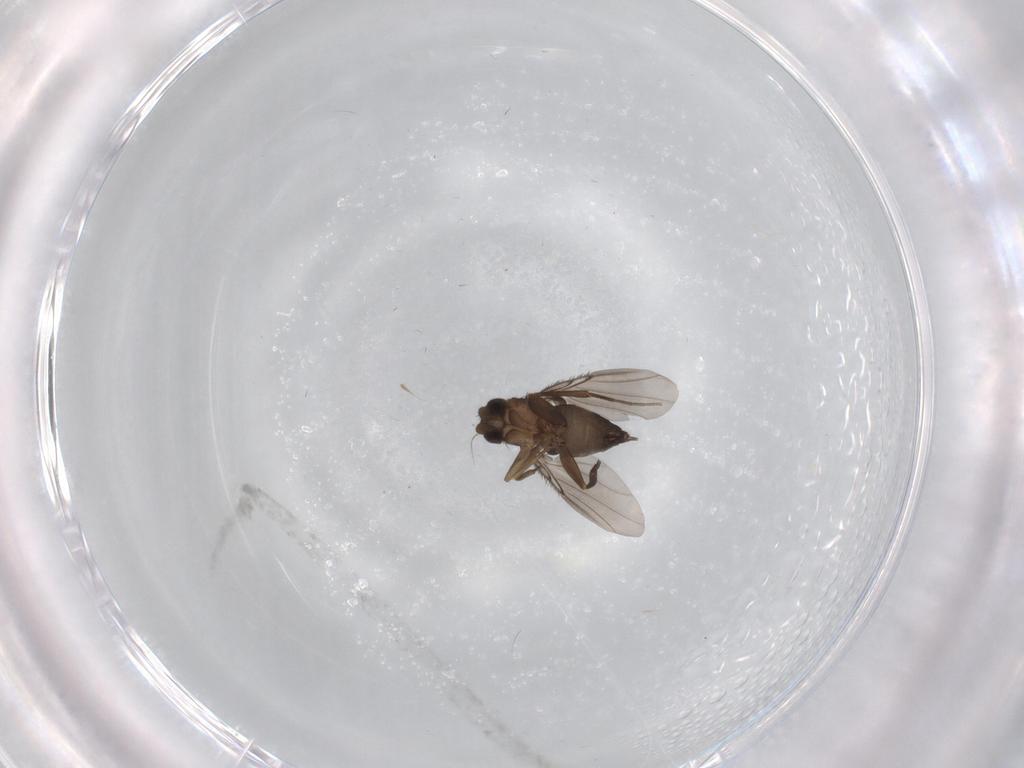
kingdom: Animalia
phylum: Arthropoda
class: Insecta
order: Diptera
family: Phoridae
